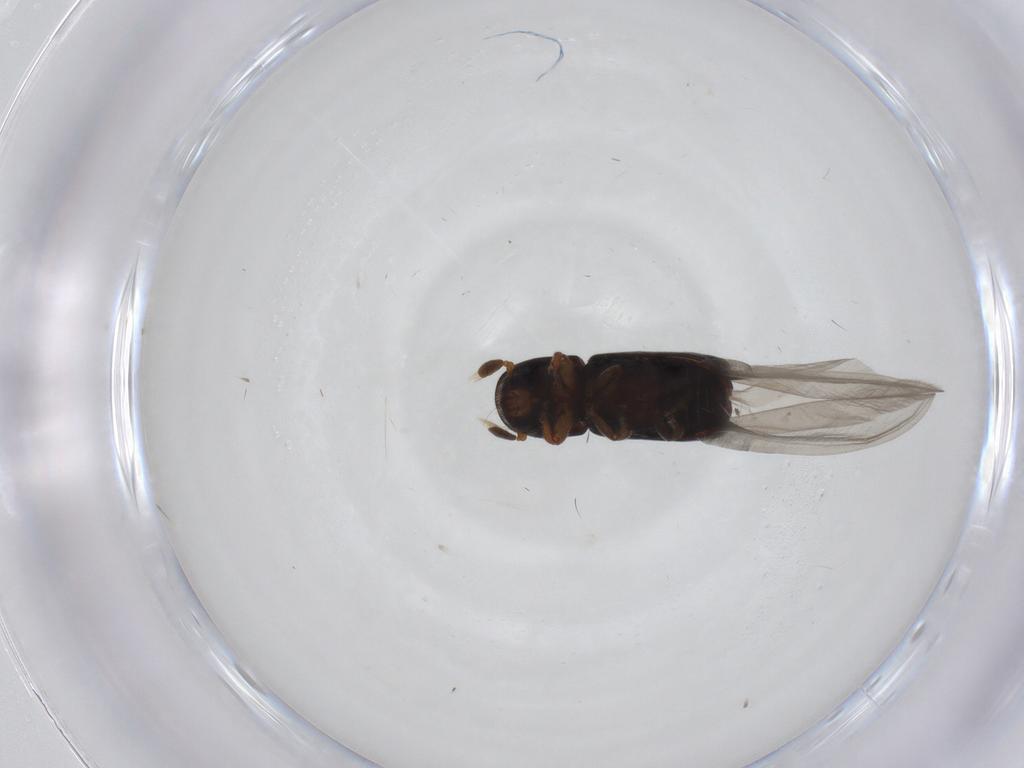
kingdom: Animalia
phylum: Arthropoda
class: Insecta
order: Coleoptera
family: Curculionidae
